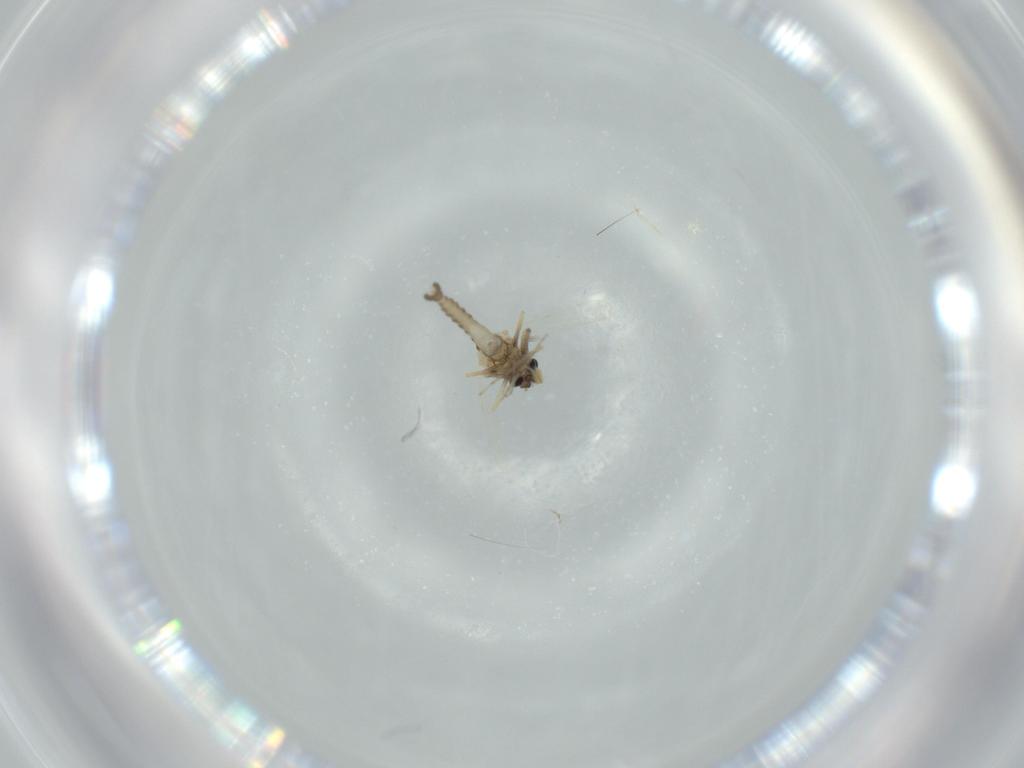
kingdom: Animalia
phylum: Arthropoda
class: Insecta
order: Diptera
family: Ceratopogonidae
